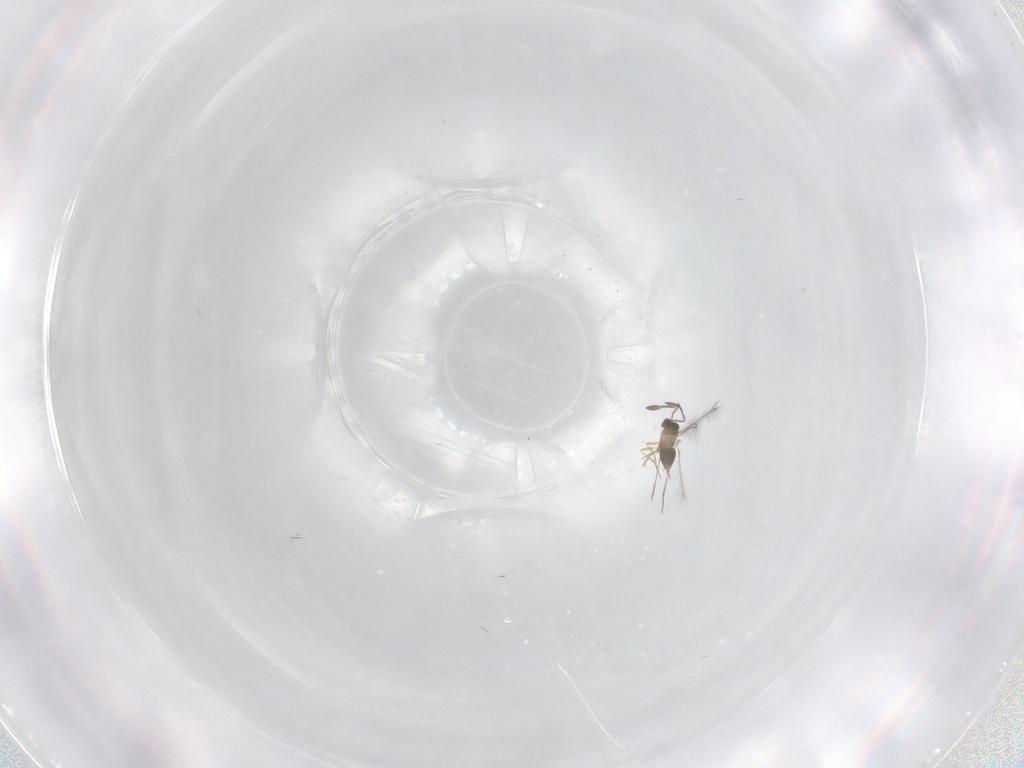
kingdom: Animalia
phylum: Arthropoda
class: Insecta
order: Hymenoptera
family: Mymaridae
